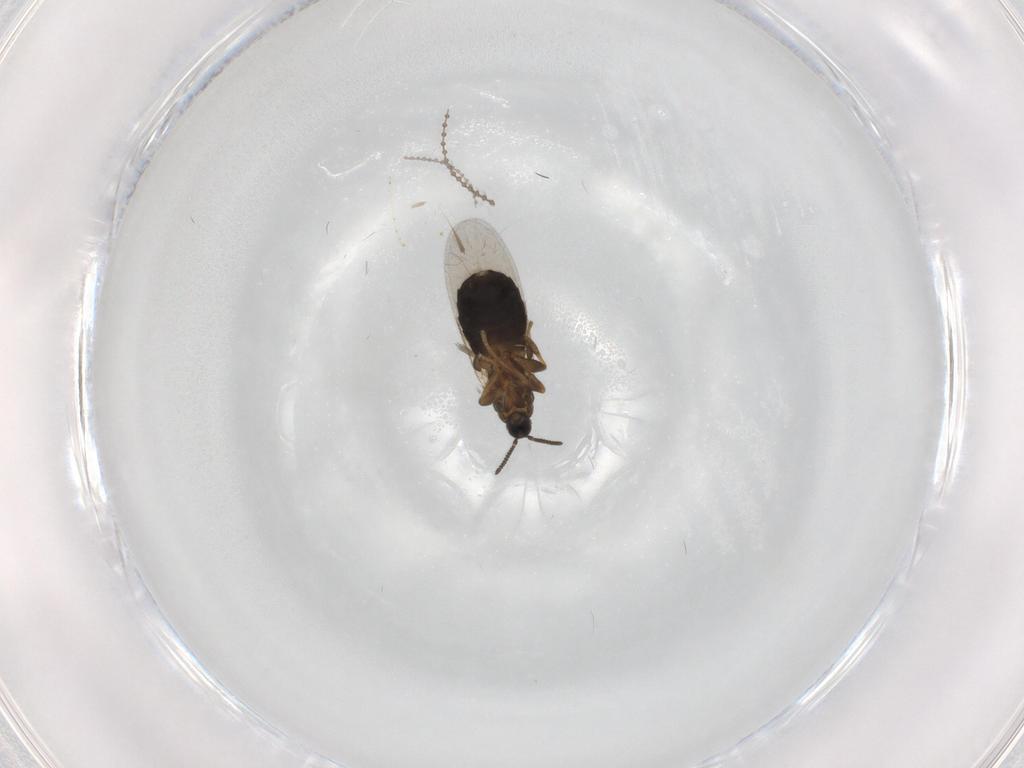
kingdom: Animalia
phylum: Arthropoda
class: Insecta
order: Diptera
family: Scatopsidae
